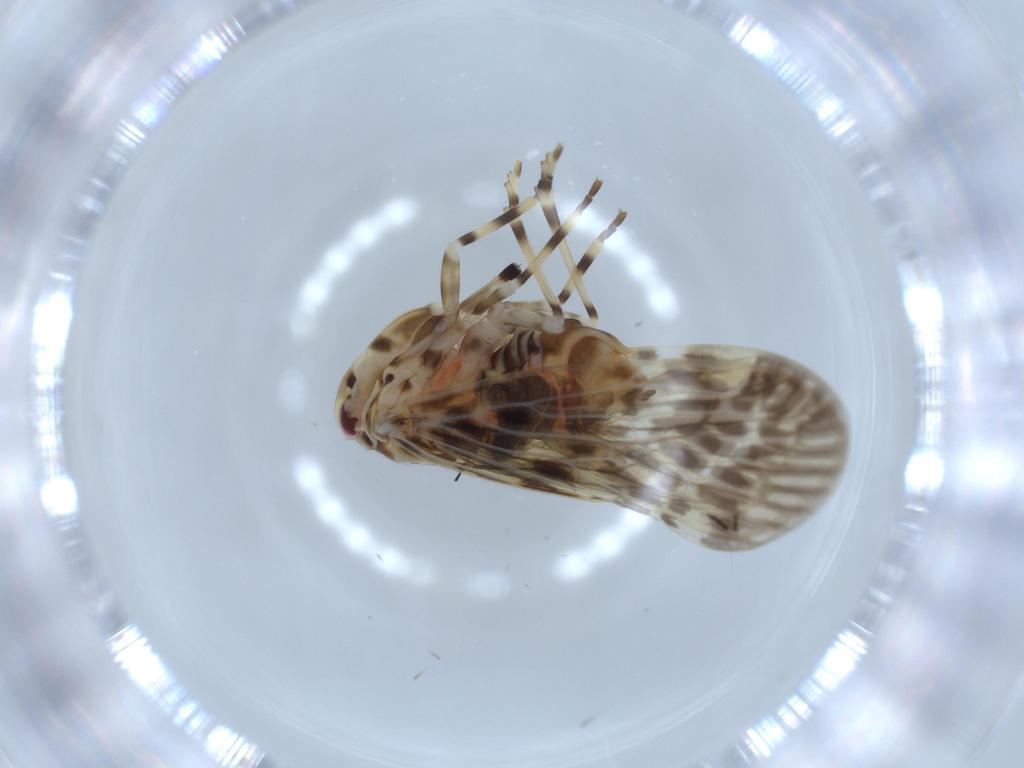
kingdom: Animalia
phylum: Arthropoda
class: Insecta
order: Hemiptera
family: Derbidae
